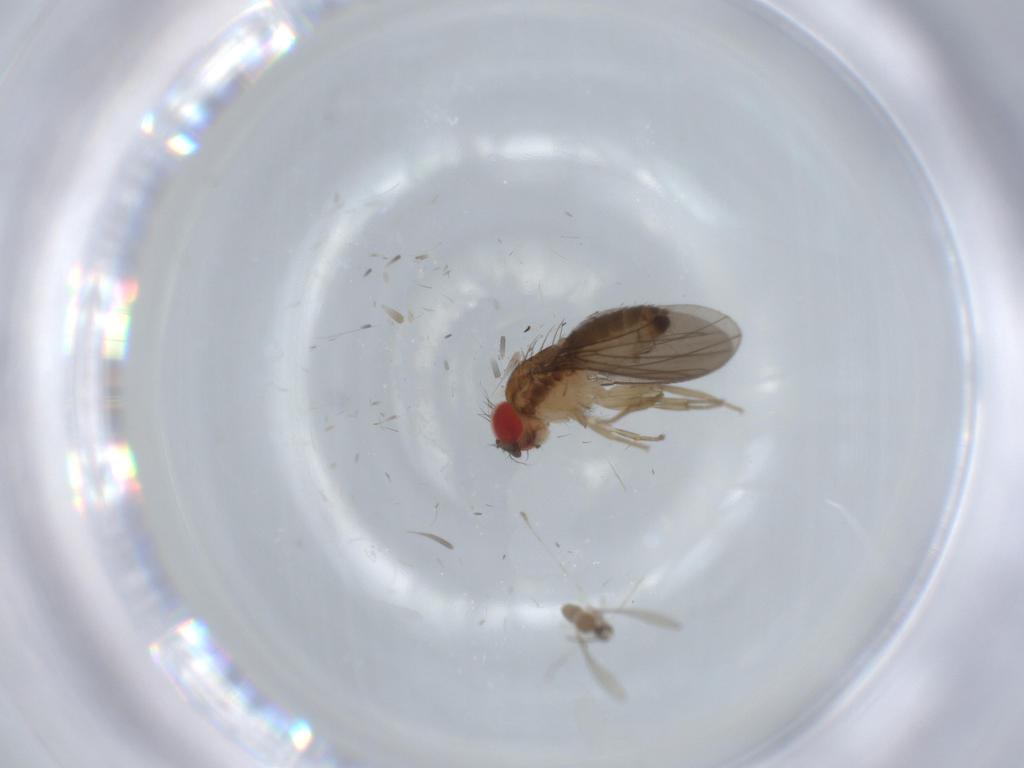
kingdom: Animalia
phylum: Arthropoda
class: Insecta
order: Diptera
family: Drosophilidae
